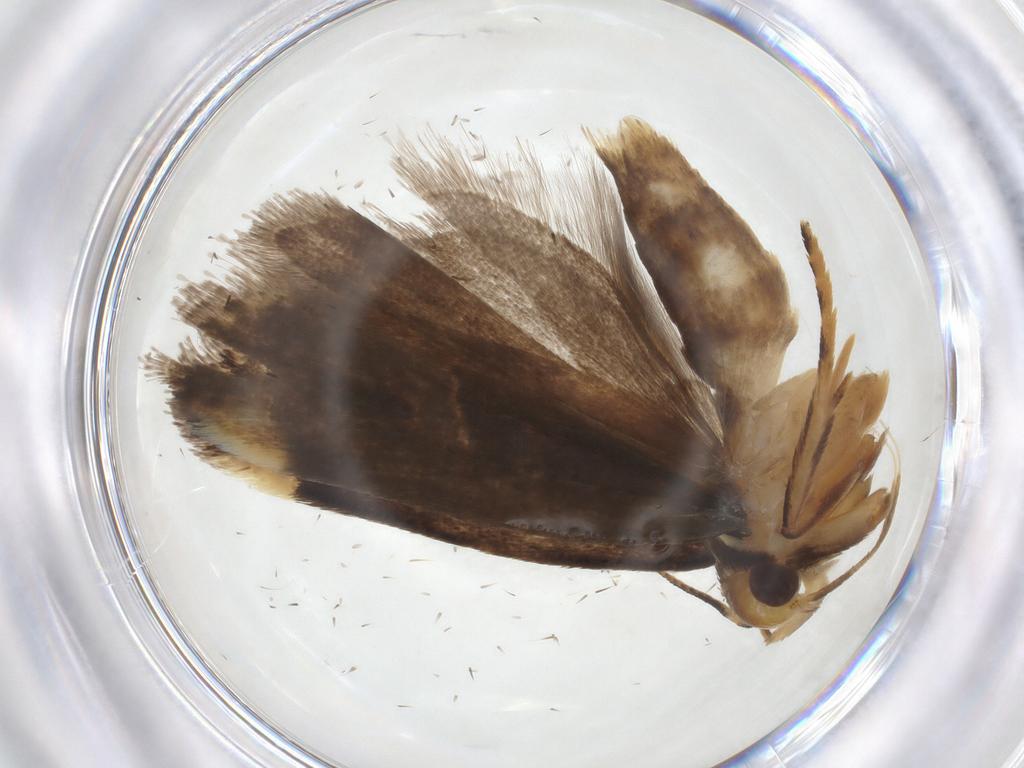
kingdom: Animalia
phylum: Arthropoda
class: Insecta
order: Lepidoptera
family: Gelechiidae
